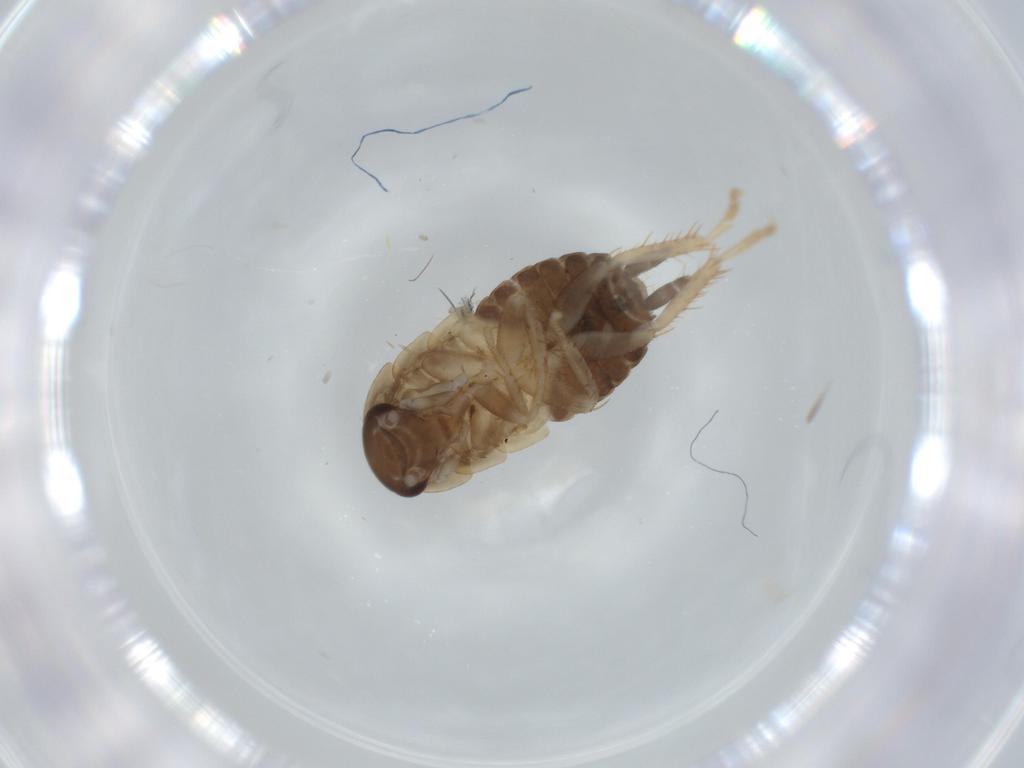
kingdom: Animalia
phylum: Arthropoda
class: Insecta
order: Blattodea
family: Ectobiidae
